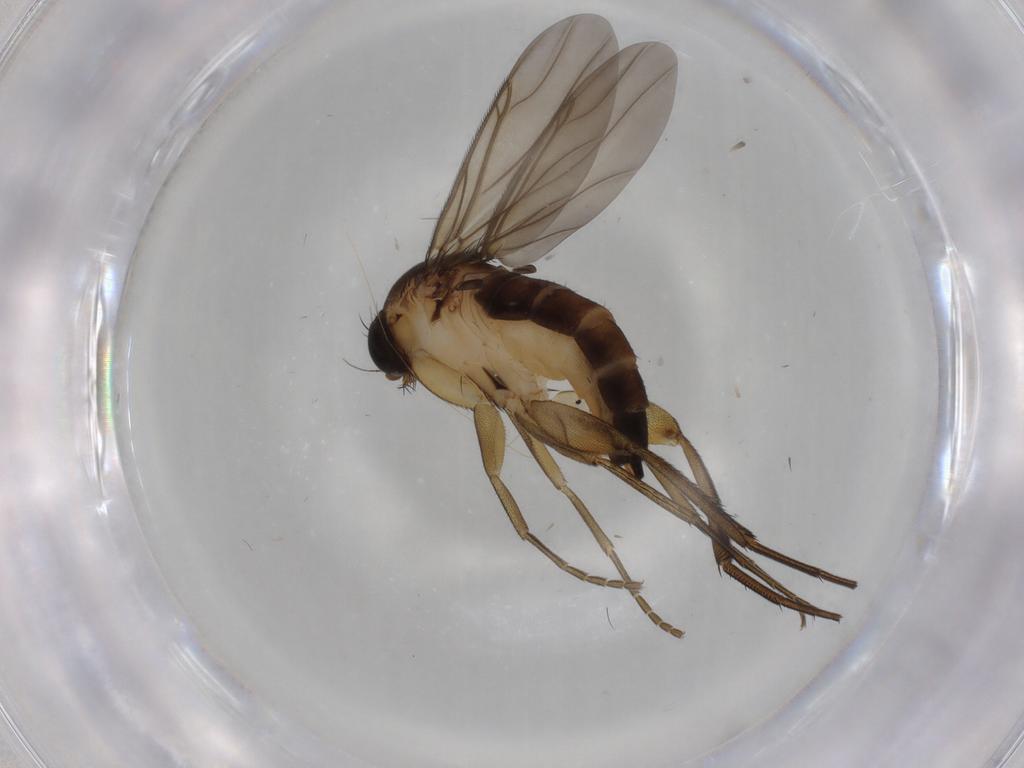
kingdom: Animalia
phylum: Arthropoda
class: Insecta
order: Diptera
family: Phoridae
